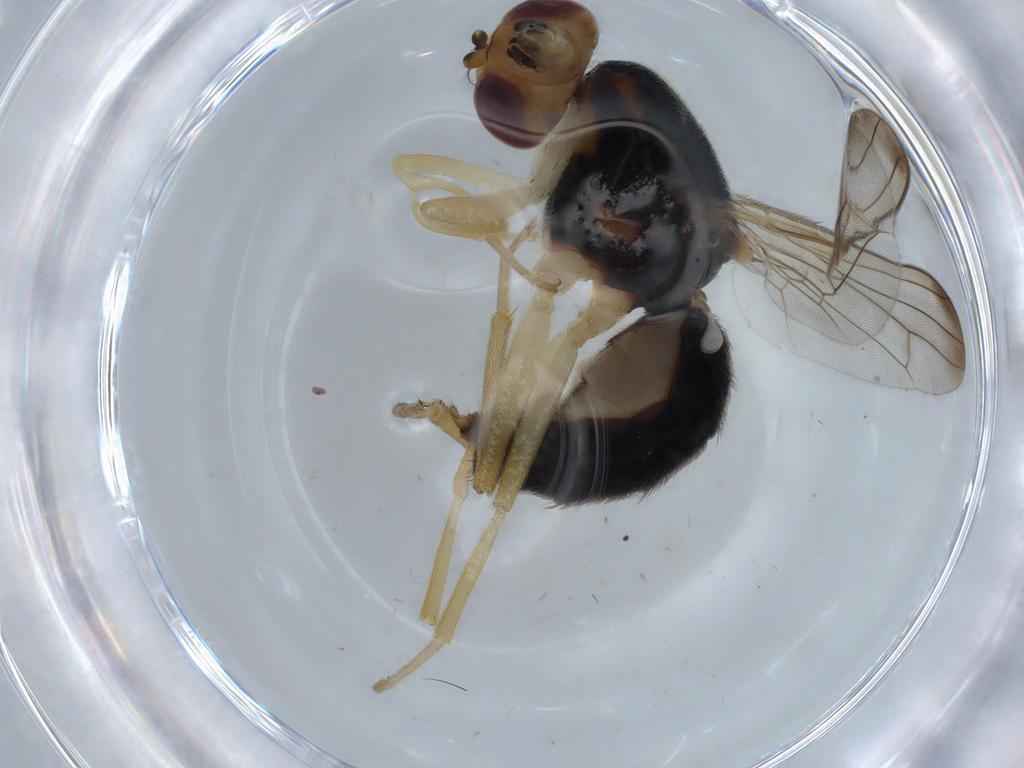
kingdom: Animalia
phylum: Arthropoda
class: Insecta
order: Diptera
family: Psilidae
